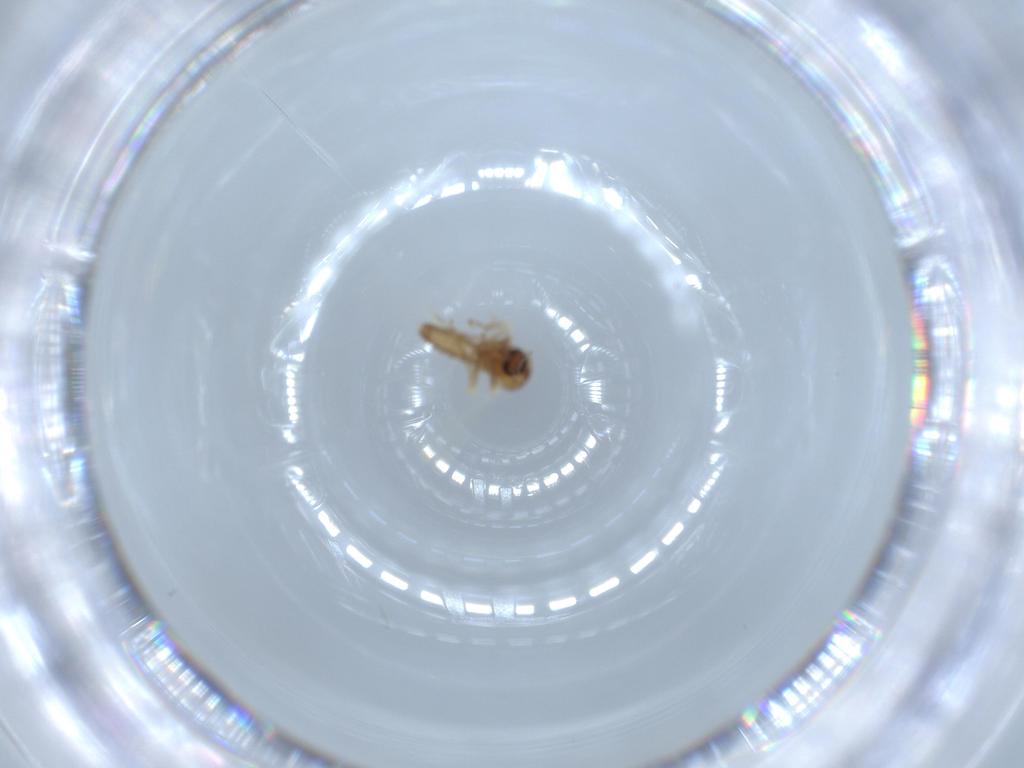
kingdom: Animalia
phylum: Arthropoda
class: Insecta
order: Diptera
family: Ceratopogonidae
